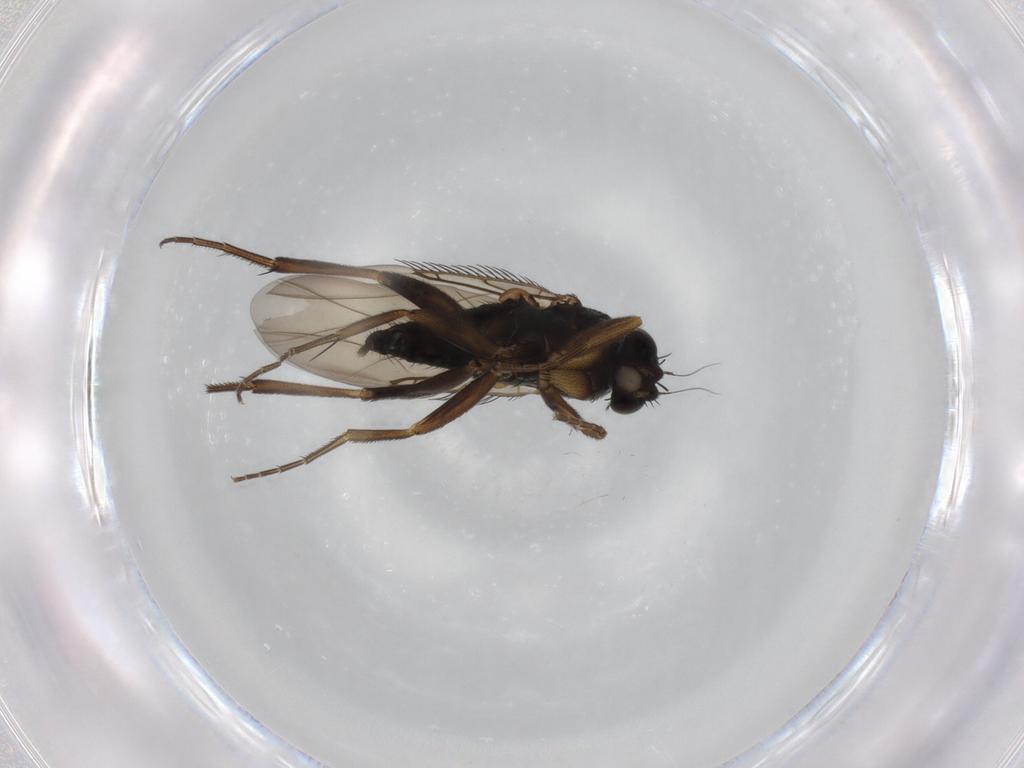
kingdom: Animalia
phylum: Arthropoda
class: Insecta
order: Diptera
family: Phoridae
